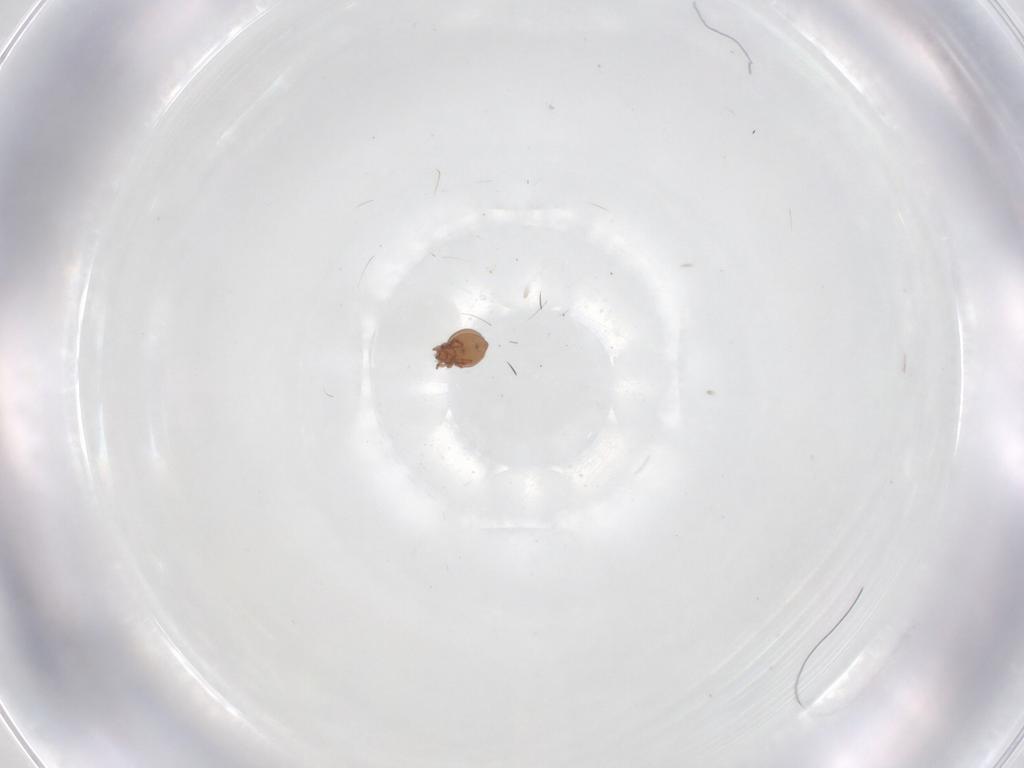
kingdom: Animalia
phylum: Arthropoda
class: Arachnida
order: Sarcoptiformes
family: Scheloribatidae
